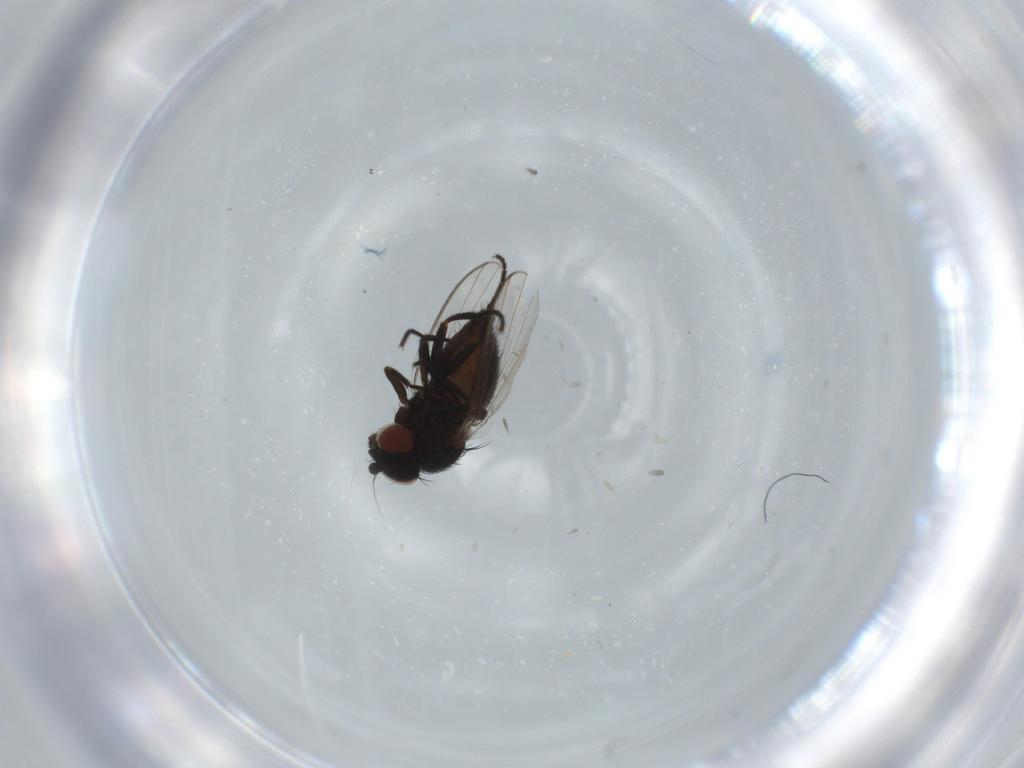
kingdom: Animalia
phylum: Arthropoda
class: Insecta
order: Diptera
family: Milichiidae
